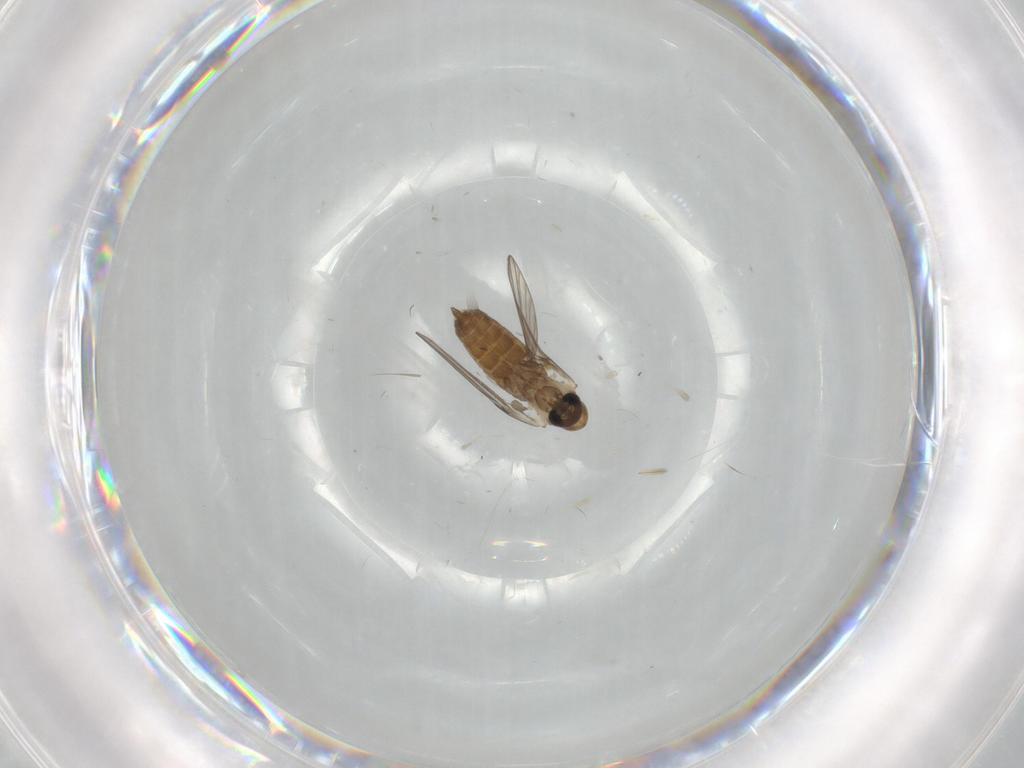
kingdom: Animalia
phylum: Arthropoda
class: Insecta
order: Diptera
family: Psychodidae
